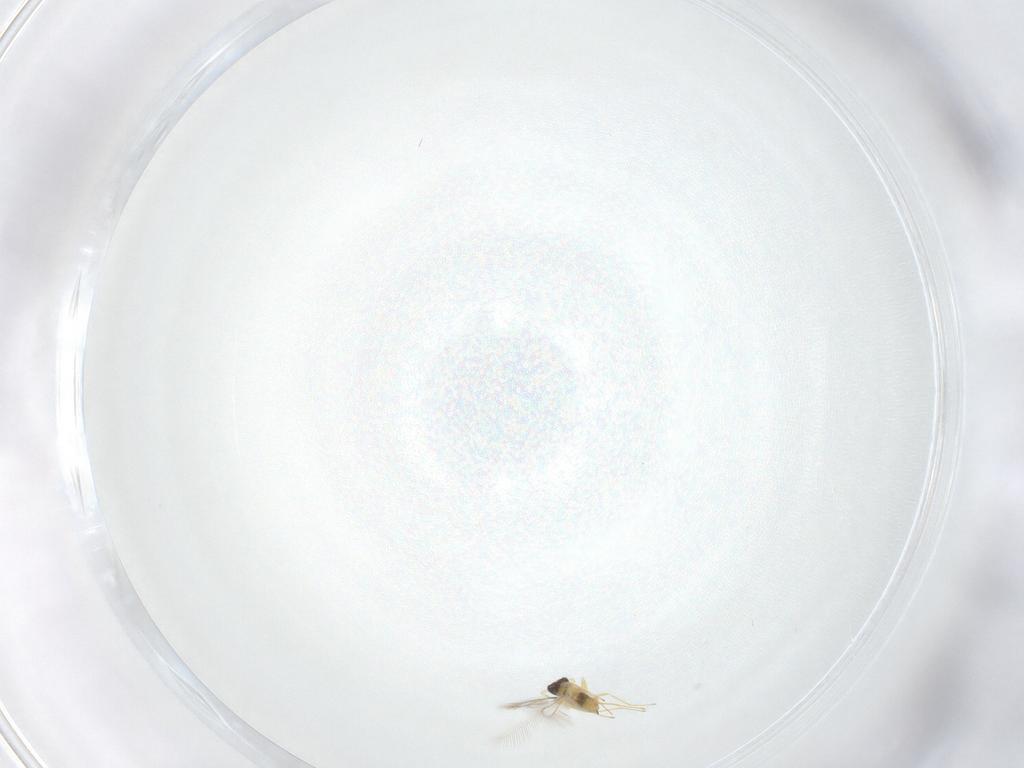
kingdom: Animalia
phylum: Arthropoda
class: Insecta
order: Hymenoptera
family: Mymaridae
